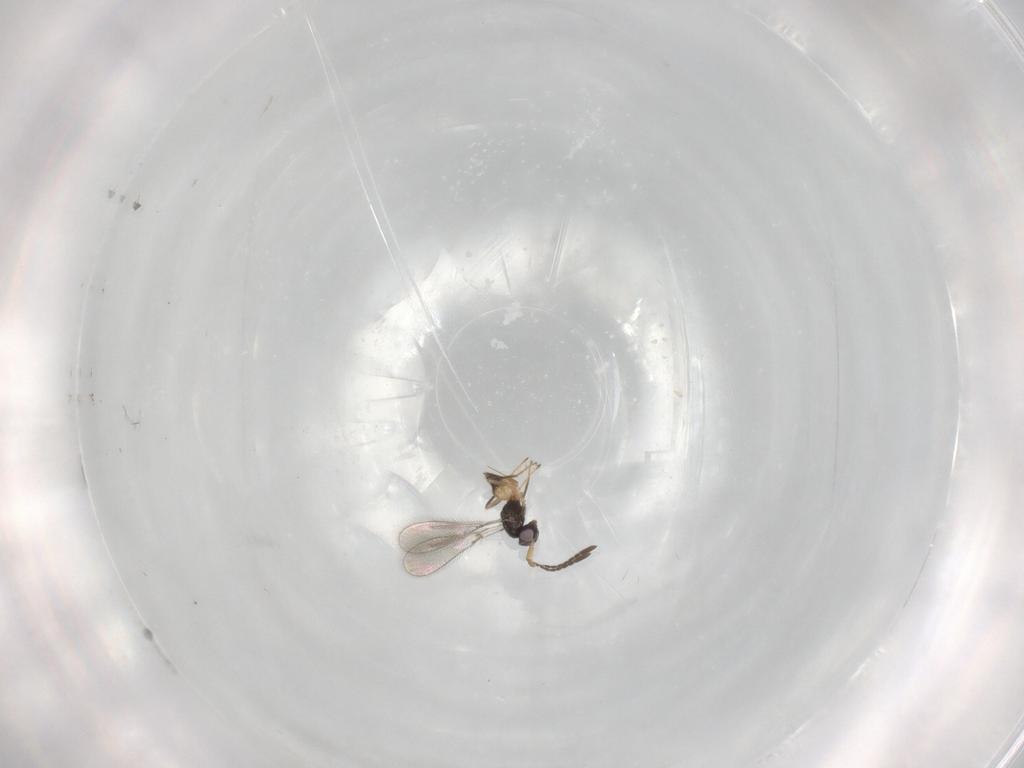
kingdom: Animalia
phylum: Arthropoda
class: Insecta
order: Hymenoptera
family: Mymaridae
